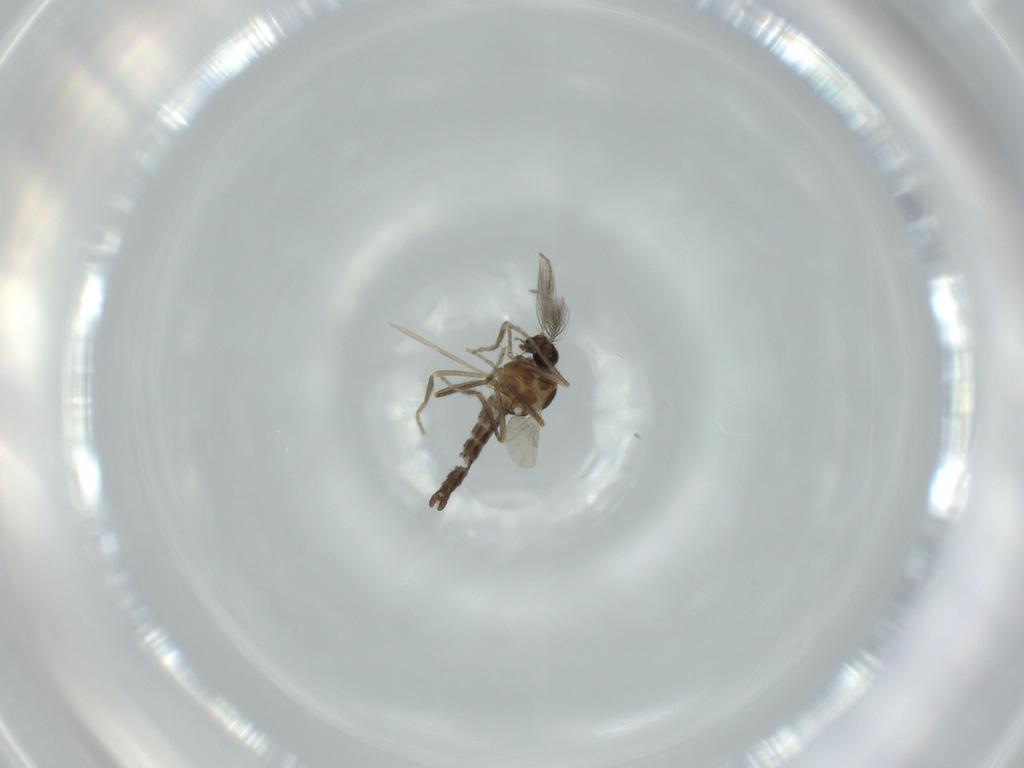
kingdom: Animalia
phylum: Arthropoda
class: Insecta
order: Diptera
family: Ceratopogonidae
